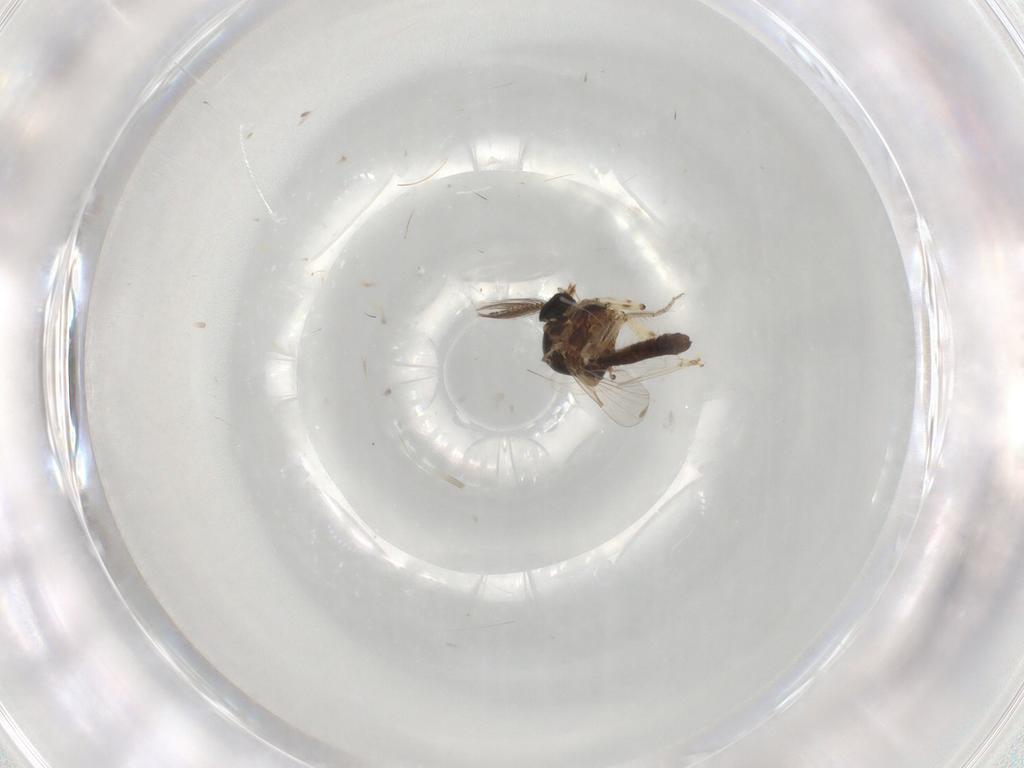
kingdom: Animalia
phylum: Arthropoda
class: Insecta
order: Diptera
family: Ceratopogonidae
